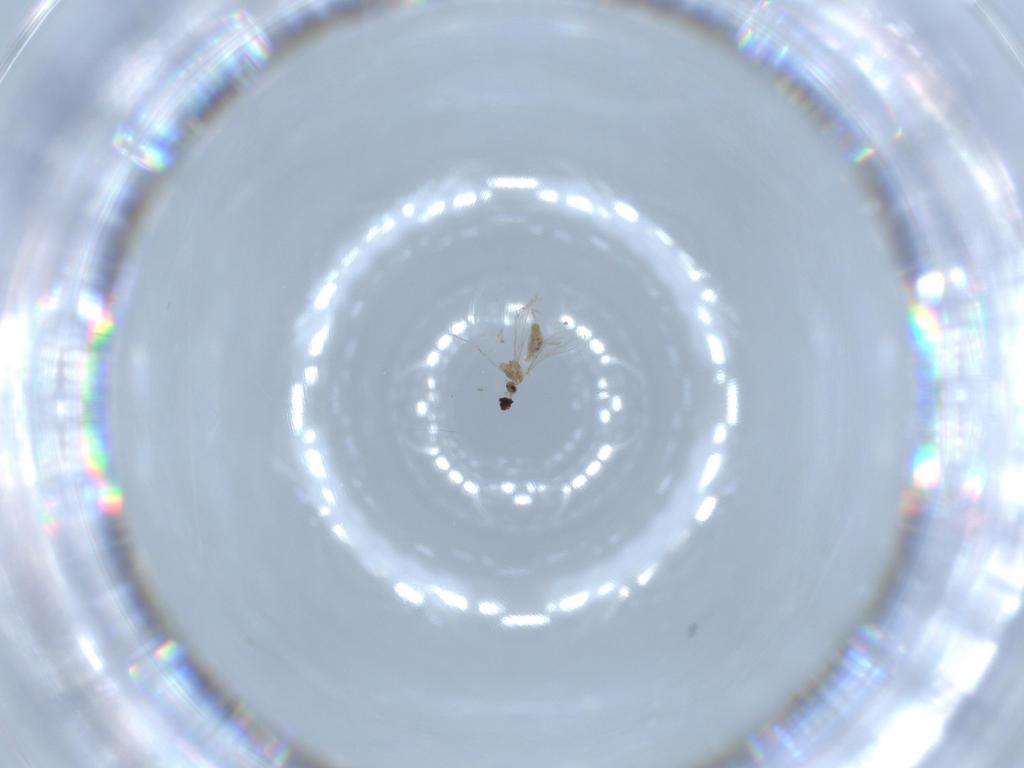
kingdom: Animalia
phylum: Arthropoda
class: Insecta
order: Diptera
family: Cecidomyiidae
